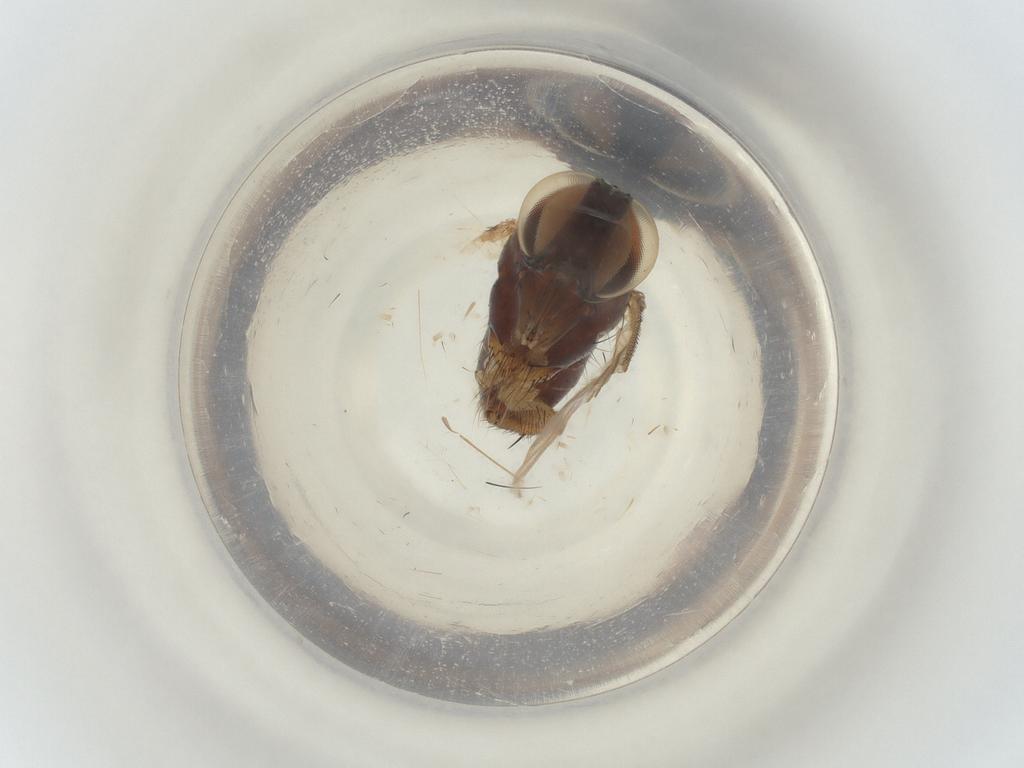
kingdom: Animalia
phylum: Arthropoda
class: Insecta
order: Diptera
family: Muscidae
